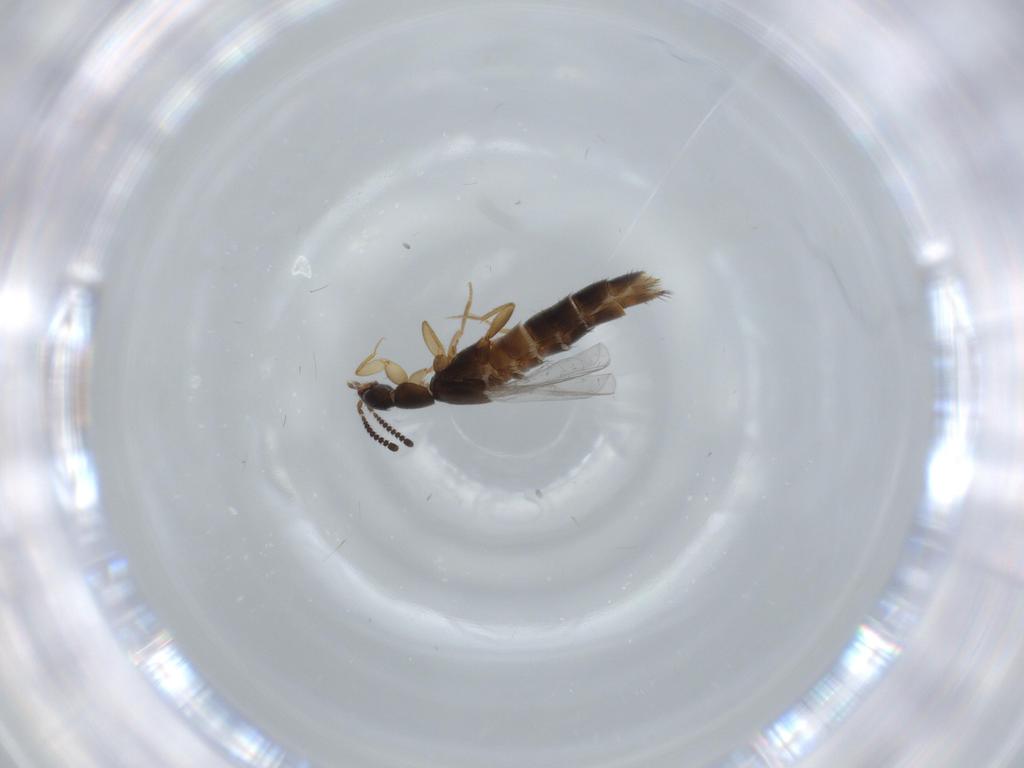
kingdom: Animalia
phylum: Arthropoda
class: Insecta
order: Coleoptera
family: Staphylinidae
